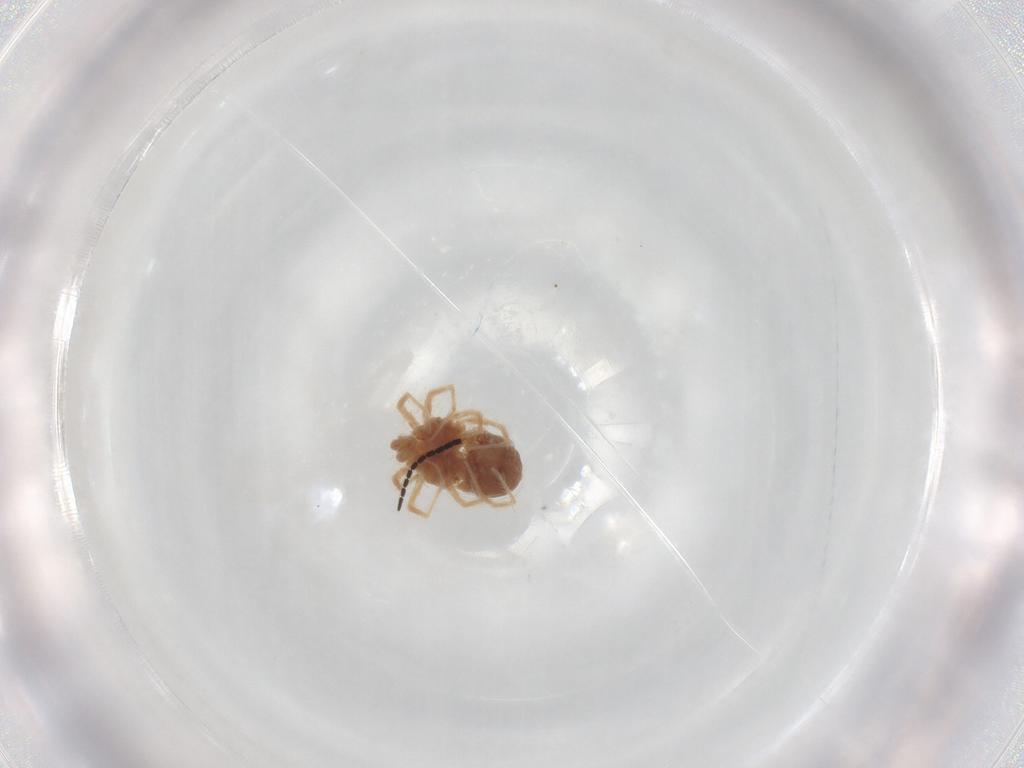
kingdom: Animalia
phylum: Arthropoda
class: Arachnida
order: Trombidiformes
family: Anystidae
